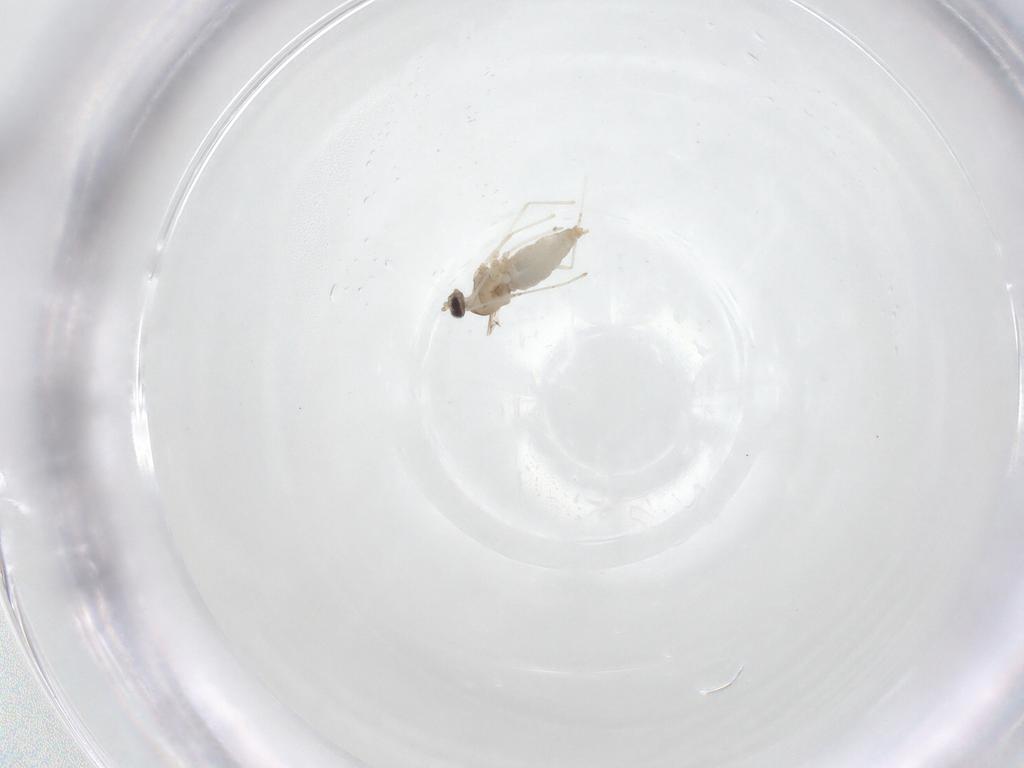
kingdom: Animalia
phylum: Arthropoda
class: Insecta
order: Diptera
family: Cecidomyiidae
